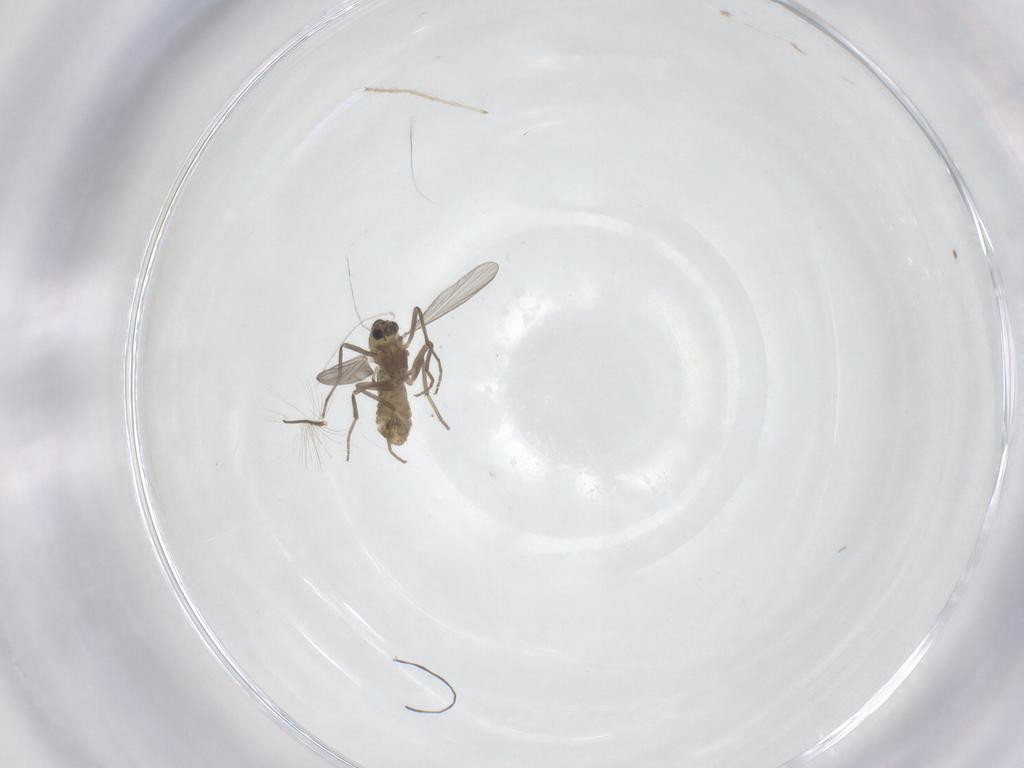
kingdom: Animalia
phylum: Arthropoda
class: Insecta
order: Diptera
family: Chironomidae
